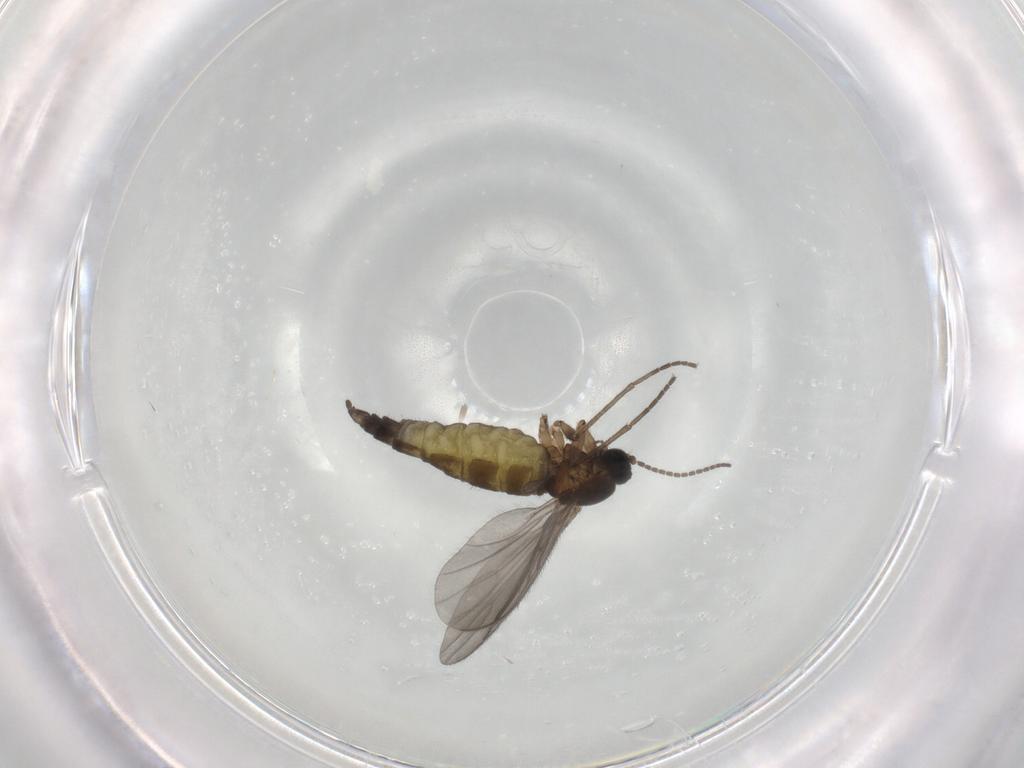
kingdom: Animalia
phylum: Arthropoda
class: Insecta
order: Diptera
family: Sciaridae
